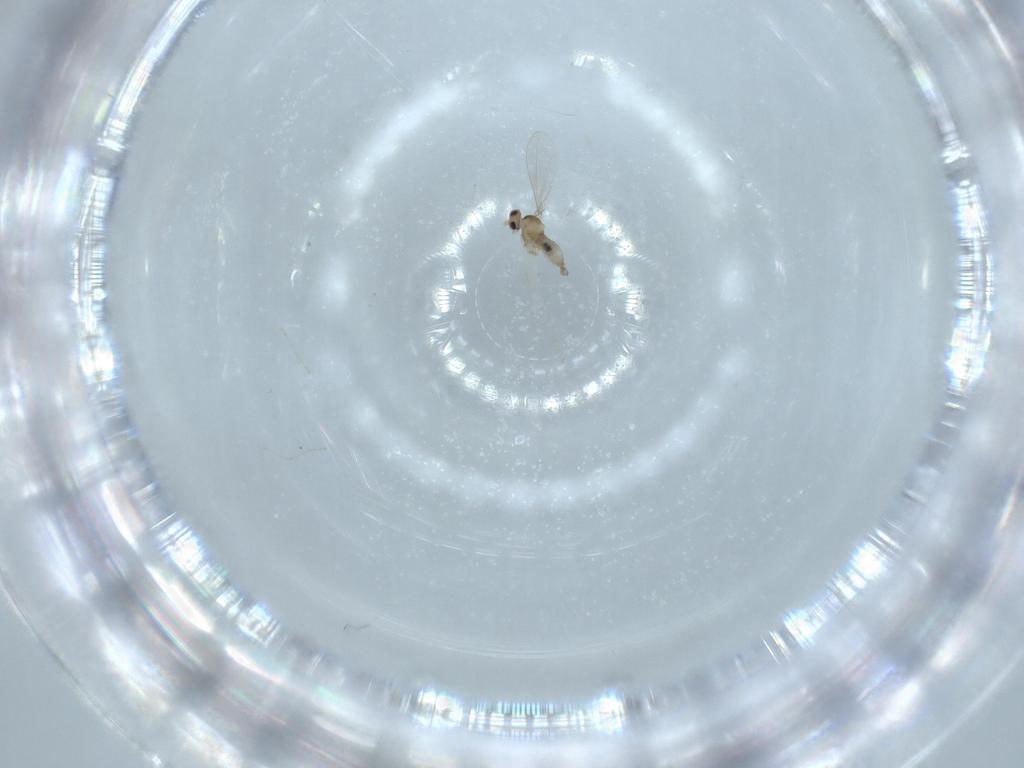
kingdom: Animalia
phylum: Arthropoda
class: Insecta
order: Diptera
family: Cecidomyiidae
